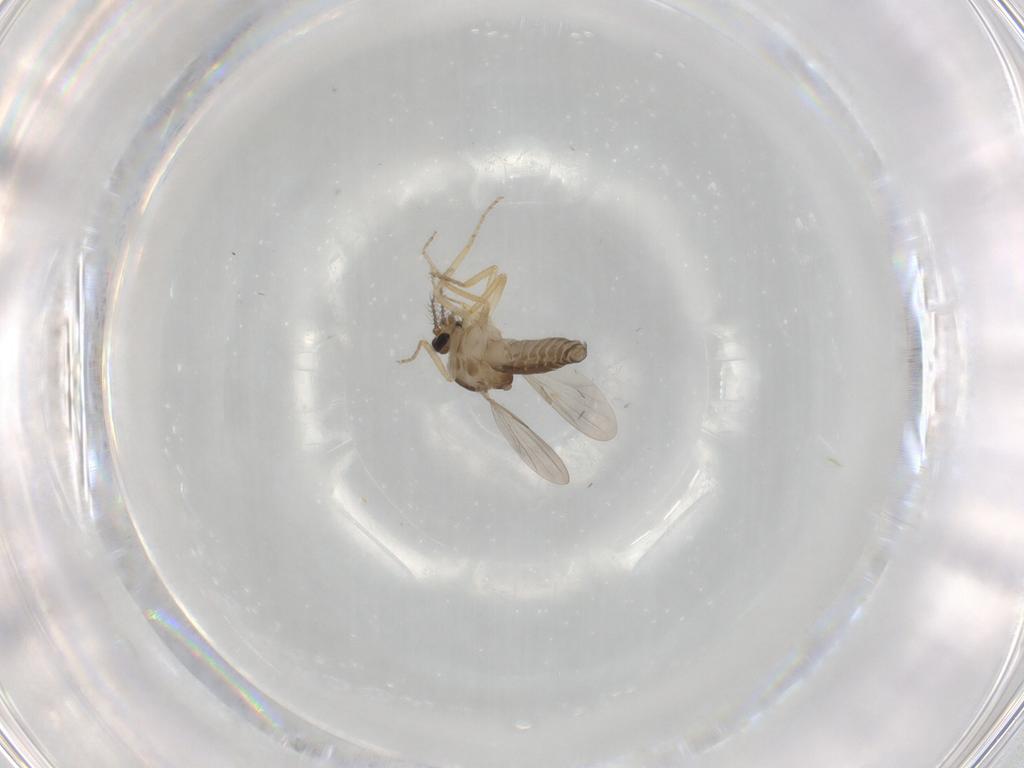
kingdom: Animalia
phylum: Arthropoda
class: Insecta
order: Diptera
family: Ceratopogonidae
